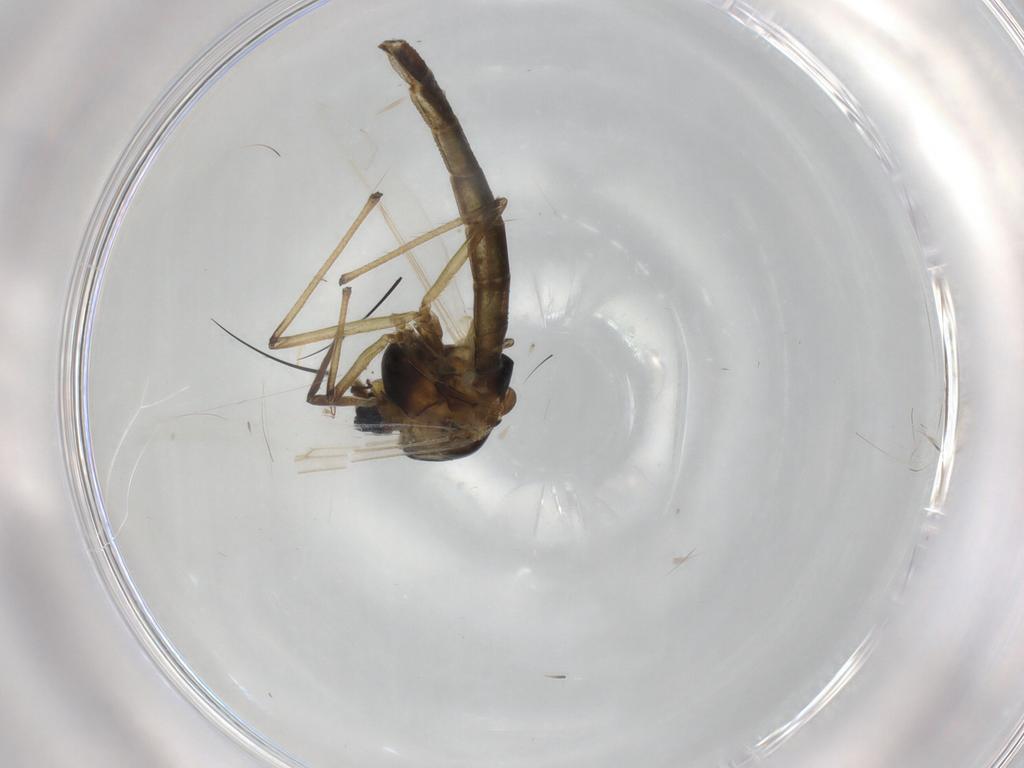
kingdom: Animalia
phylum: Arthropoda
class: Insecta
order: Diptera
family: Chironomidae
